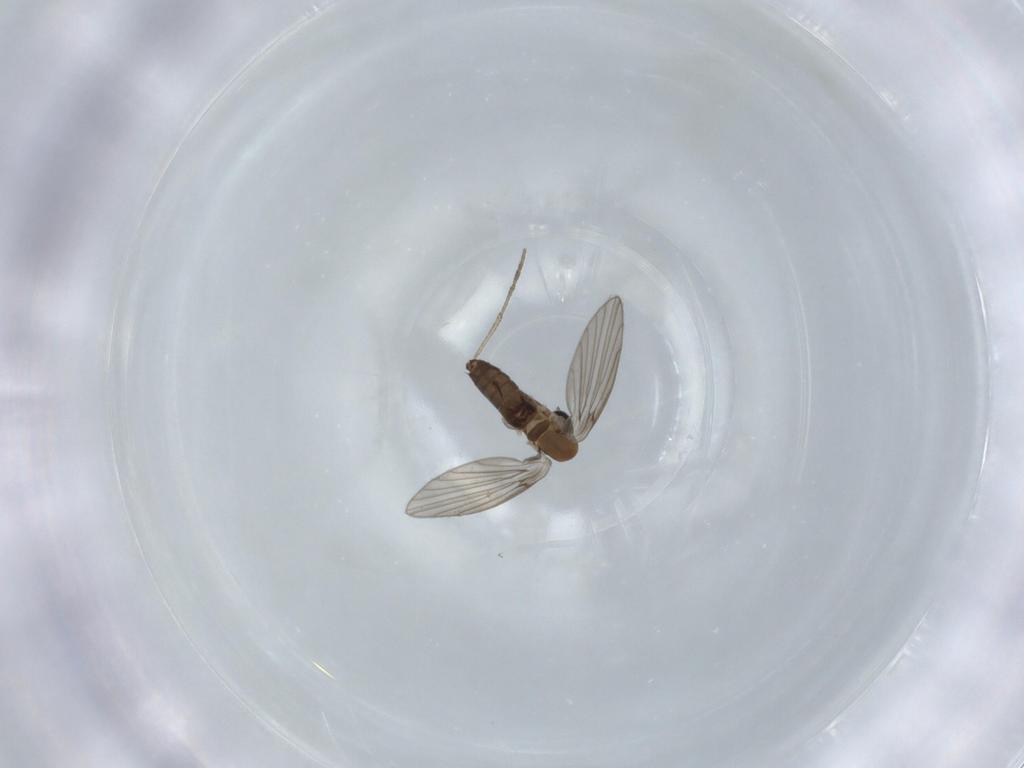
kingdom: Animalia
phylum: Arthropoda
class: Insecta
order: Diptera
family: Psychodidae
